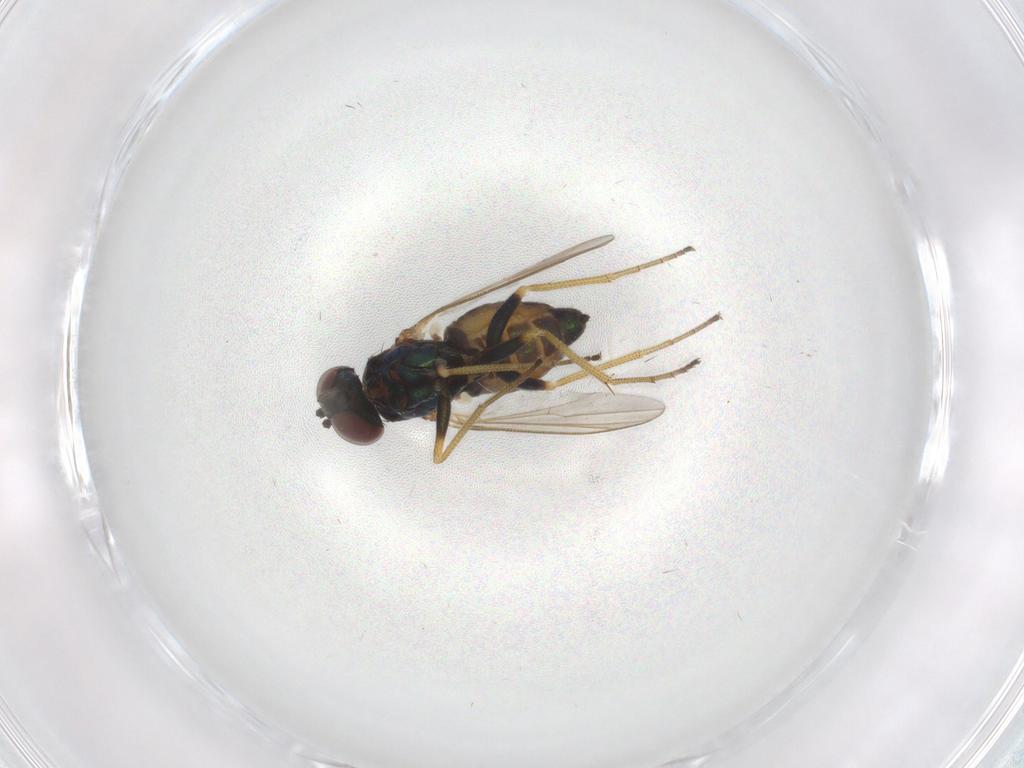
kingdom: Animalia
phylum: Arthropoda
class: Insecta
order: Diptera
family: Dolichopodidae
